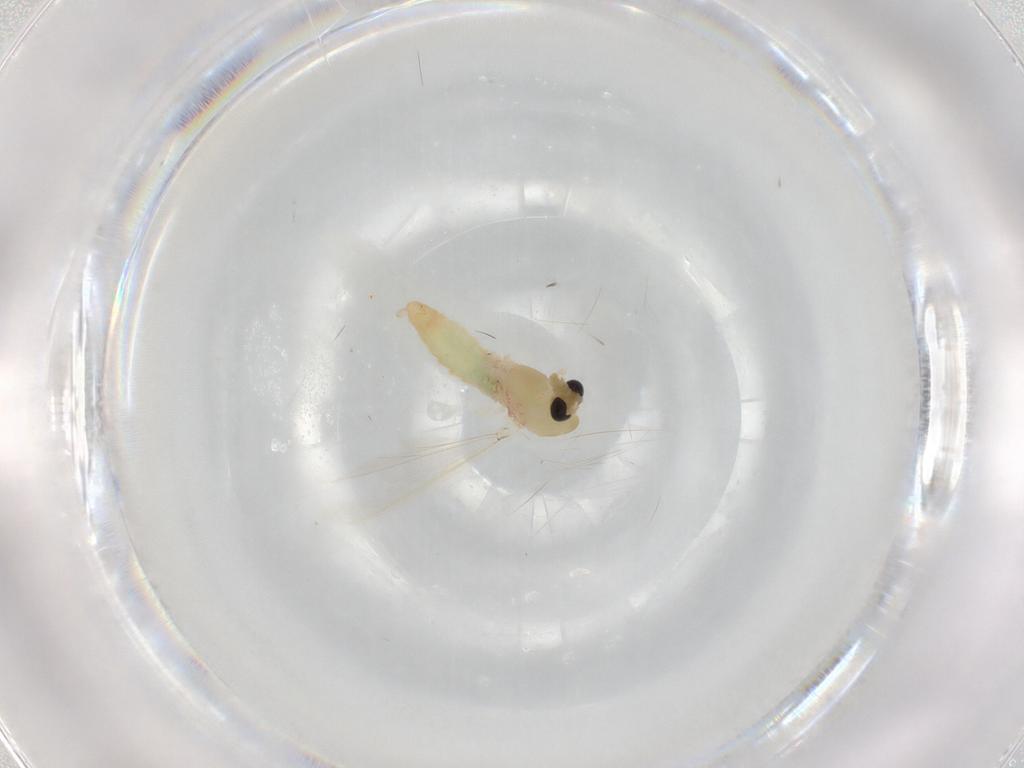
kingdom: Animalia
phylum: Arthropoda
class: Insecta
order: Diptera
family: Chironomidae
